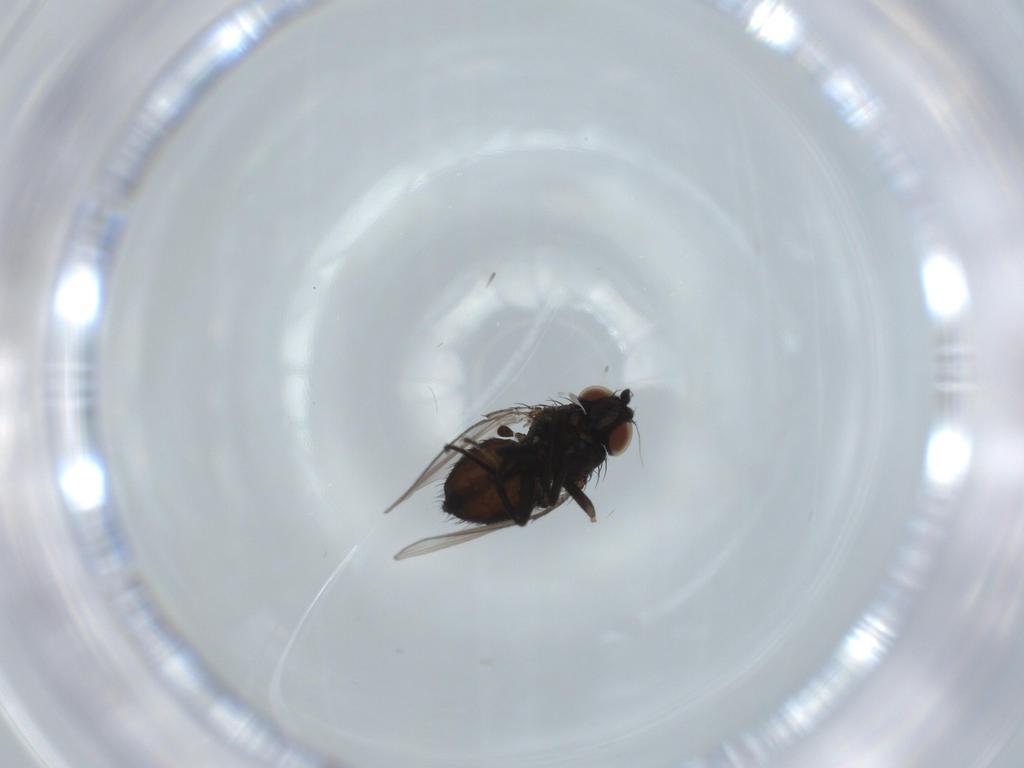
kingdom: Animalia
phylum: Arthropoda
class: Insecta
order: Diptera
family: Milichiidae
